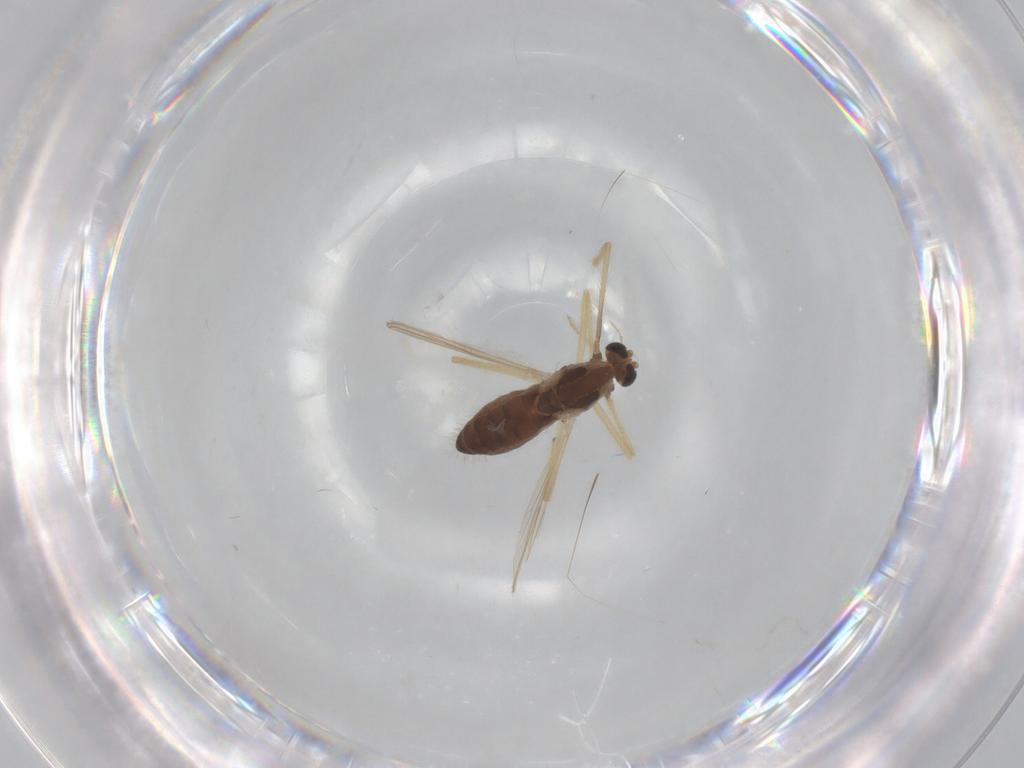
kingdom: Animalia
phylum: Arthropoda
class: Insecta
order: Diptera
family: Chironomidae
